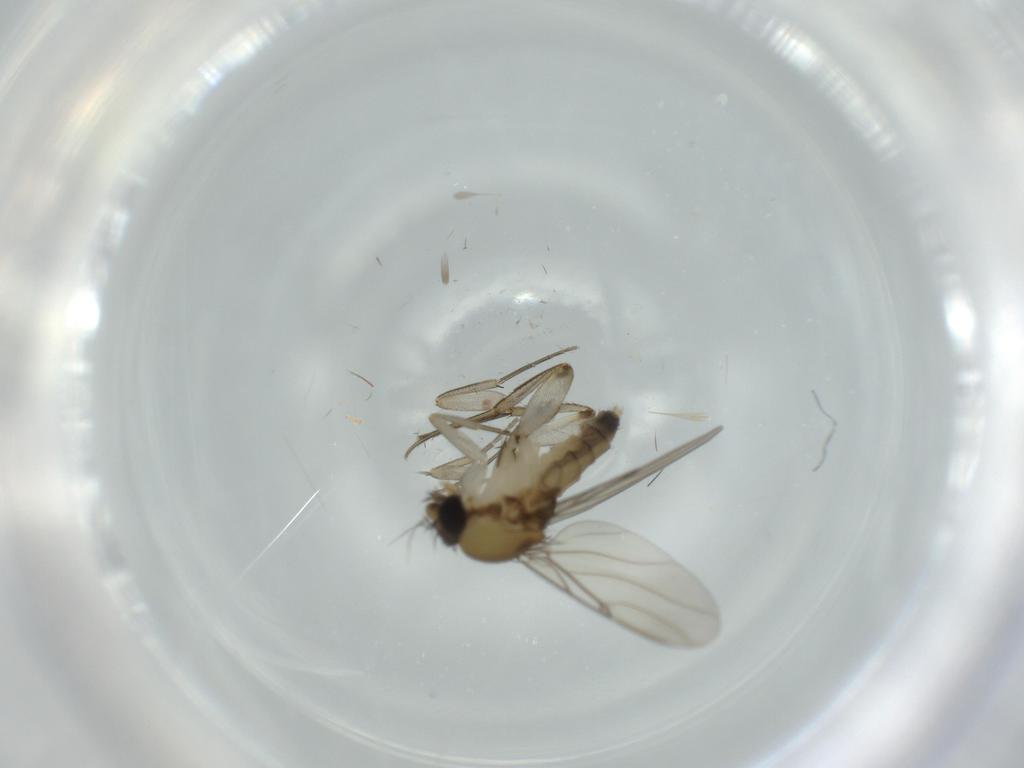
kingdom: Animalia
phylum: Arthropoda
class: Insecta
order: Diptera
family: Phoridae
